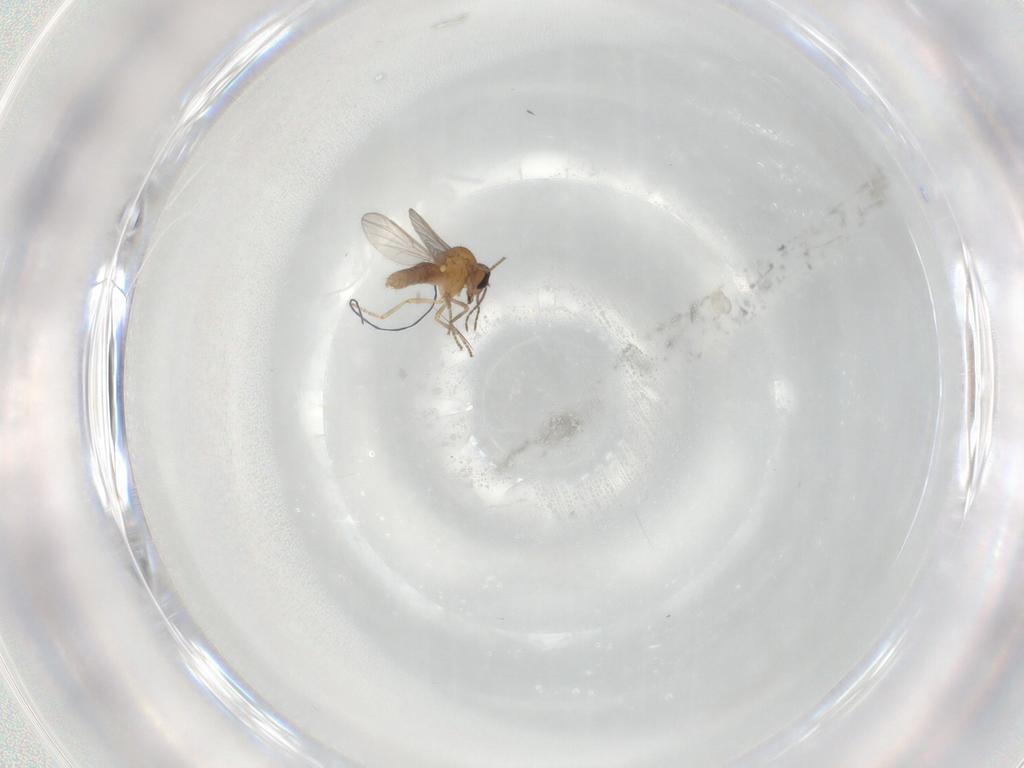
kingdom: Animalia
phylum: Arthropoda
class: Insecta
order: Diptera
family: Ceratopogonidae
